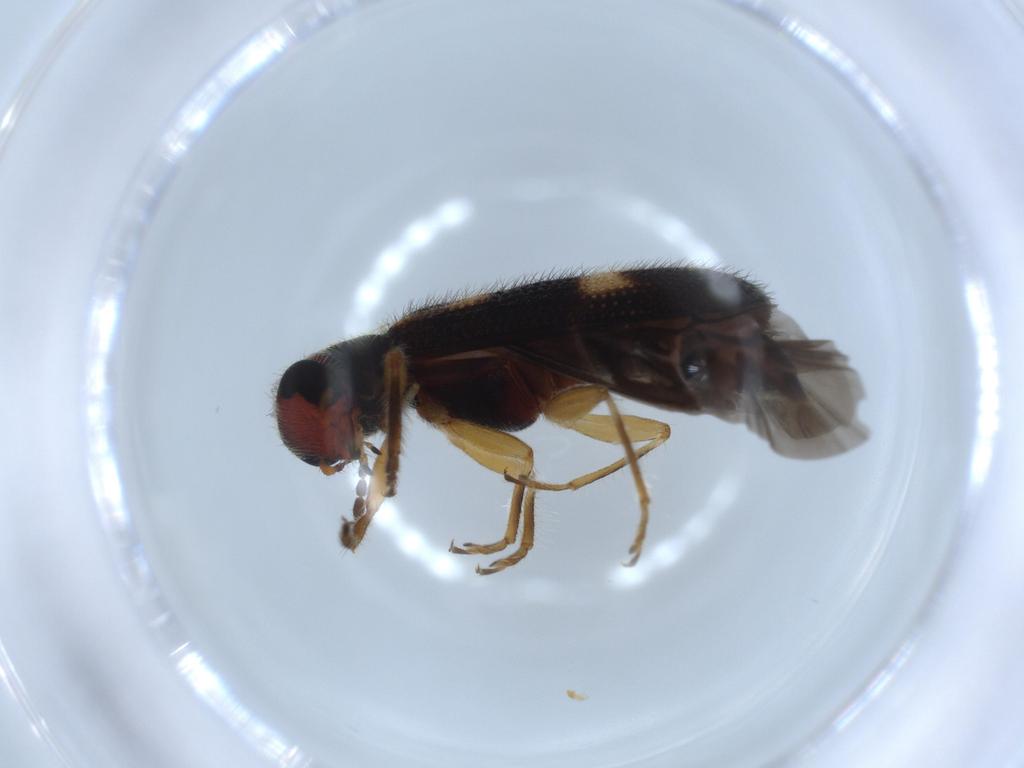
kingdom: Animalia
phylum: Arthropoda
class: Insecta
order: Coleoptera
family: Cleridae
